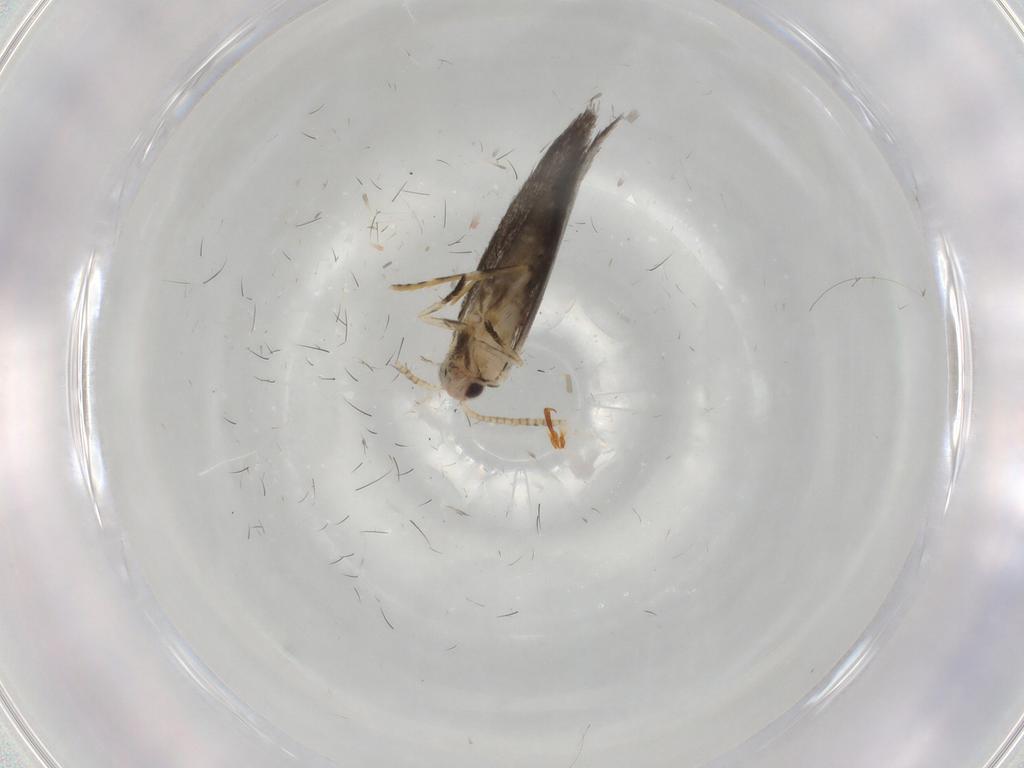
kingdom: Animalia
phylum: Arthropoda
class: Insecta
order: Lepidoptera
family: Tineidae
